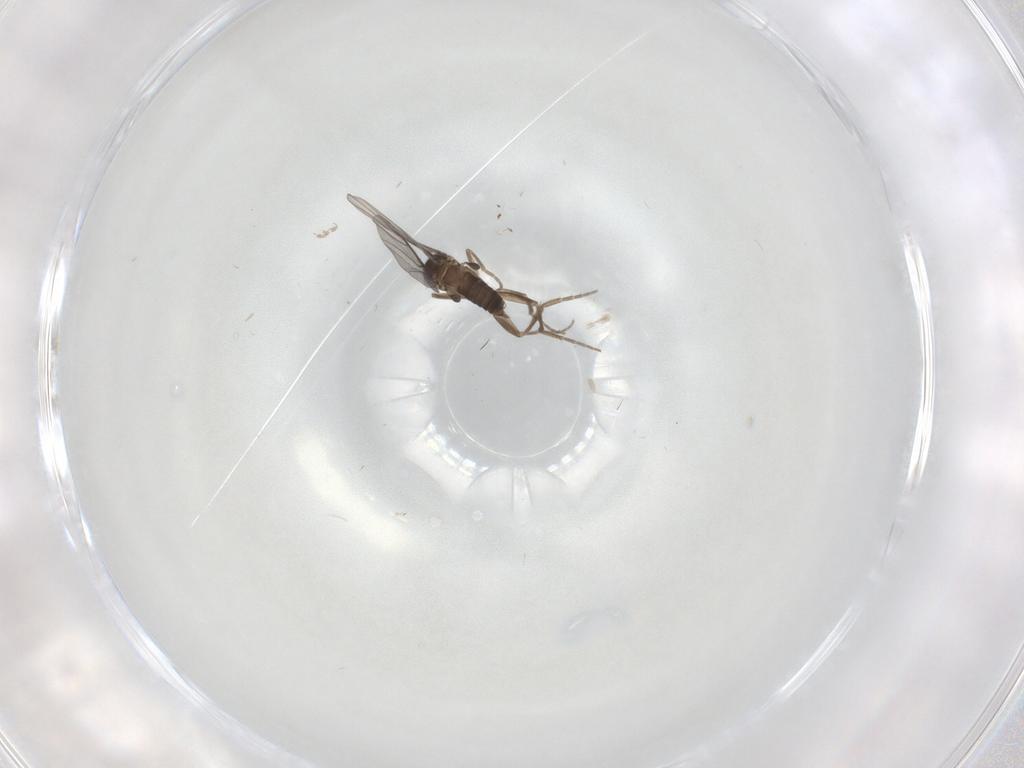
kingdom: Animalia
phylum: Arthropoda
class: Insecta
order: Diptera
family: Phoridae
